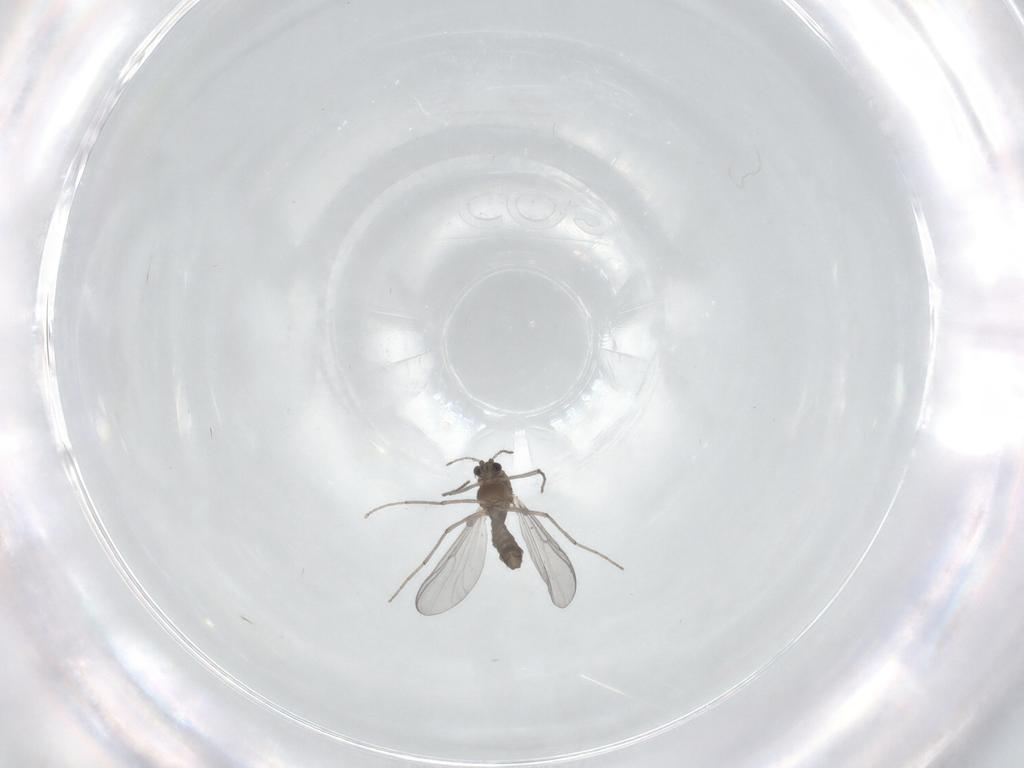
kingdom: Animalia
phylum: Arthropoda
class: Insecta
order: Diptera
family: Chironomidae
